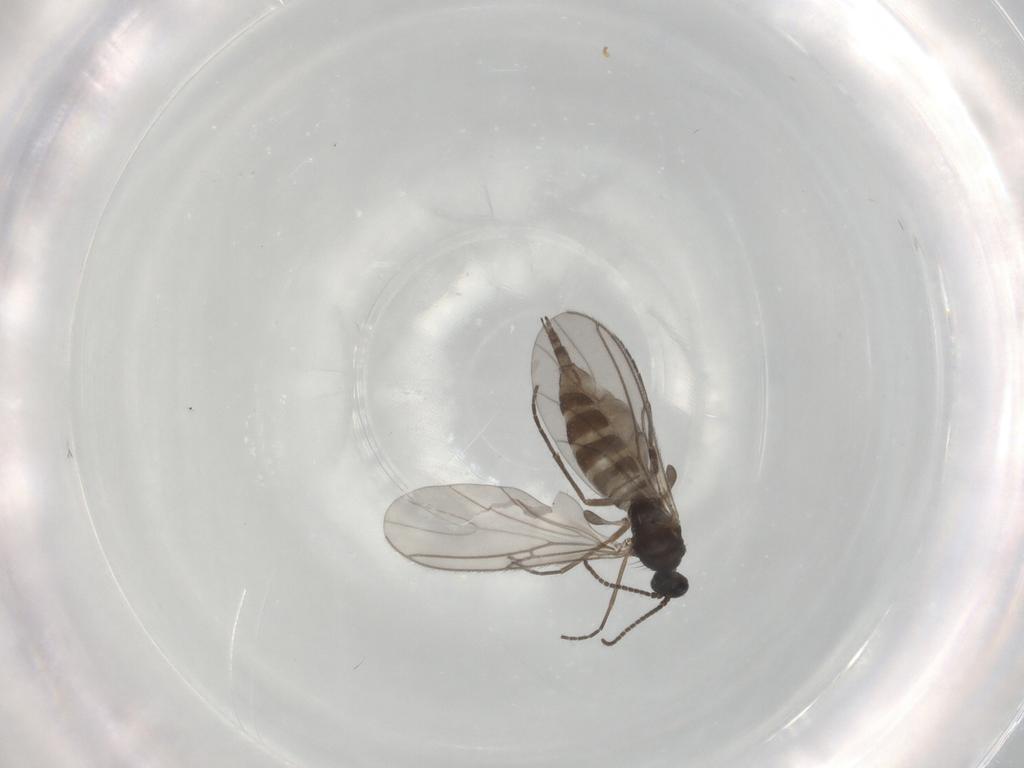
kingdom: Animalia
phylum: Arthropoda
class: Insecta
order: Diptera
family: Sciaridae
